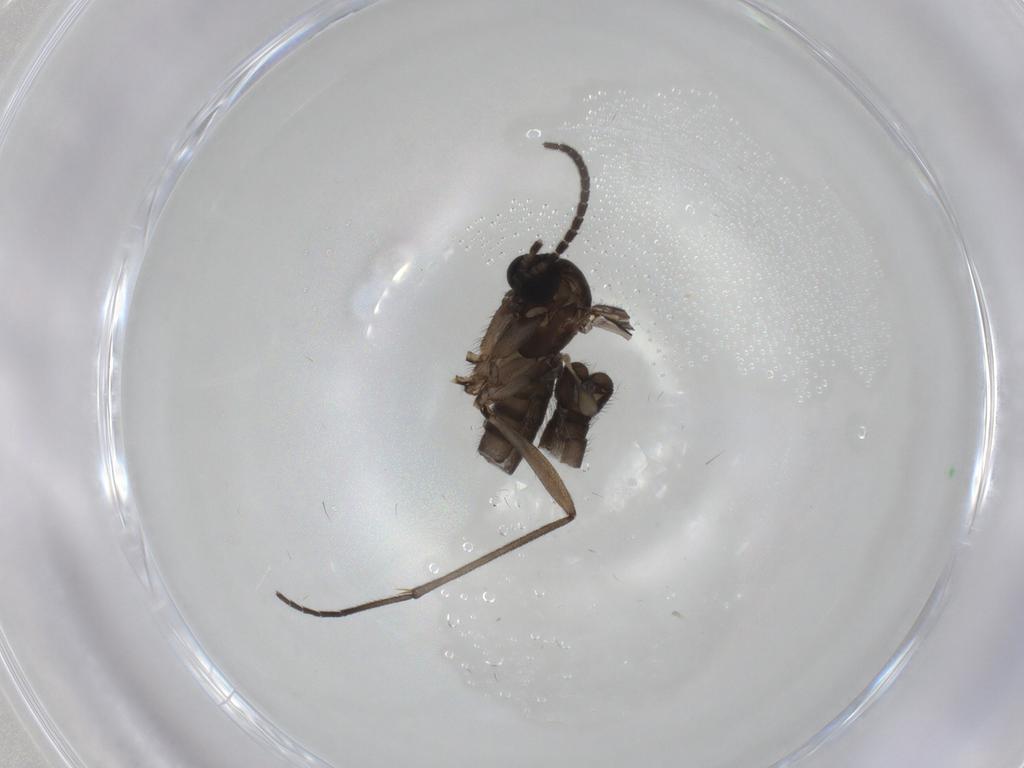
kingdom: Animalia
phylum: Arthropoda
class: Insecta
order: Diptera
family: Sciaridae
